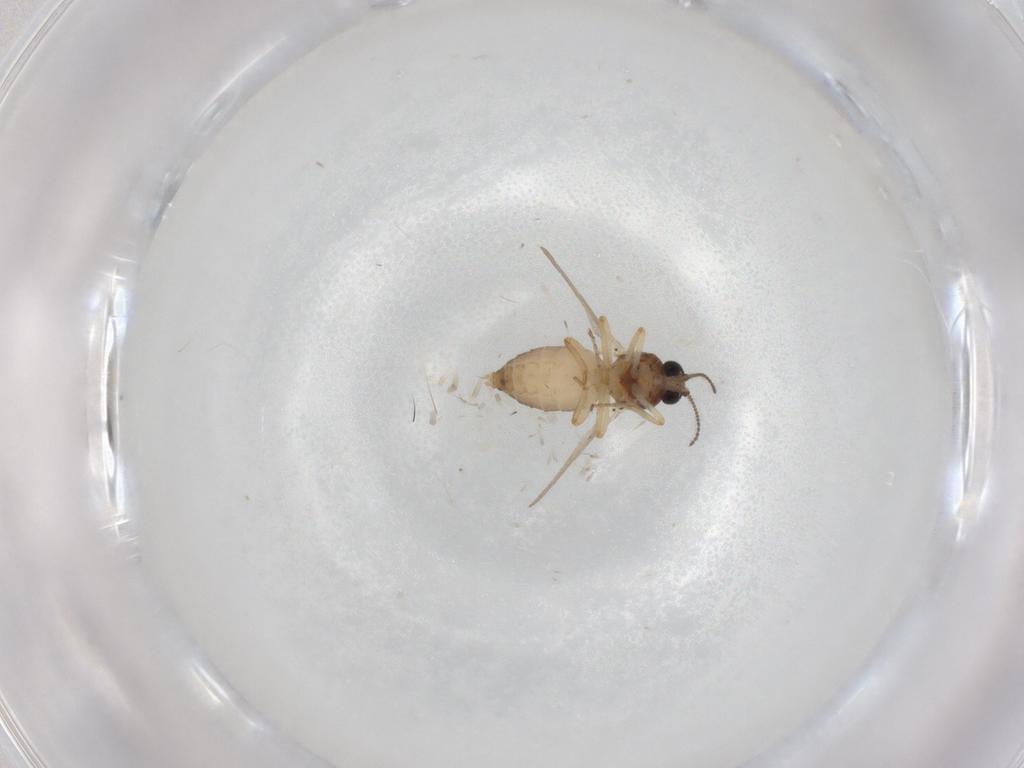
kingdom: Animalia
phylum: Arthropoda
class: Insecta
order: Diptera
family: Ceratopogonidae
